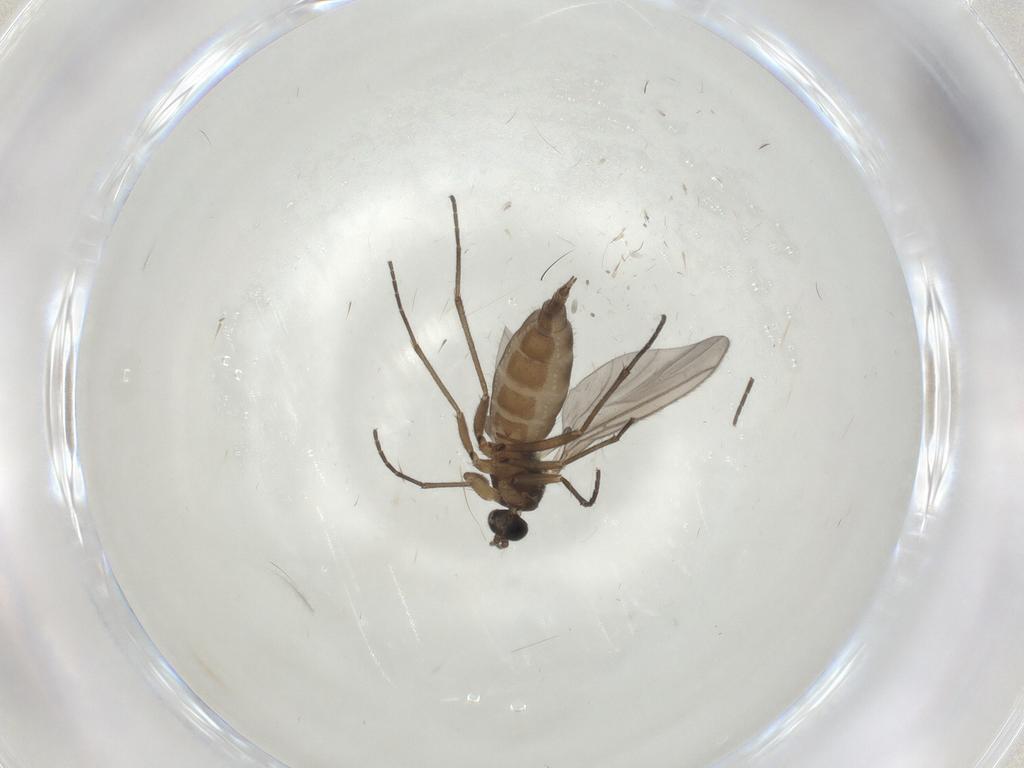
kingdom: Animalia
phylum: Arthropoda
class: Insecta
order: Diptera
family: Sciaridae
